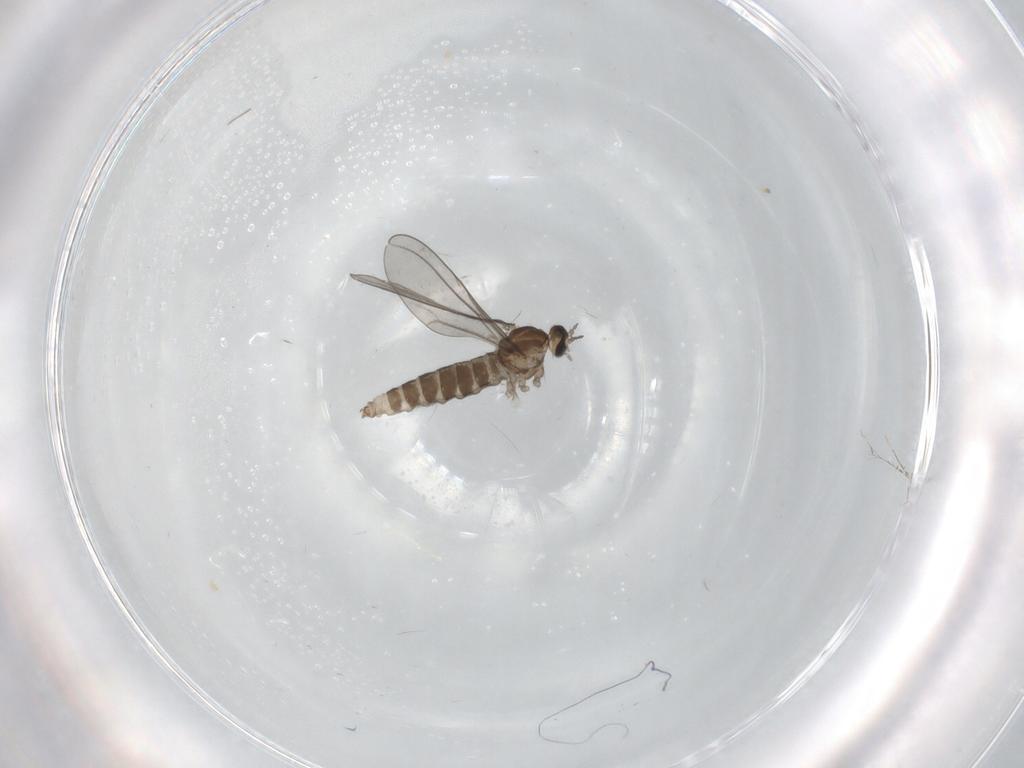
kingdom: Animalia
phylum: Arthropoda
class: Insecta
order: Diptera
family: Cecidomyiidae
